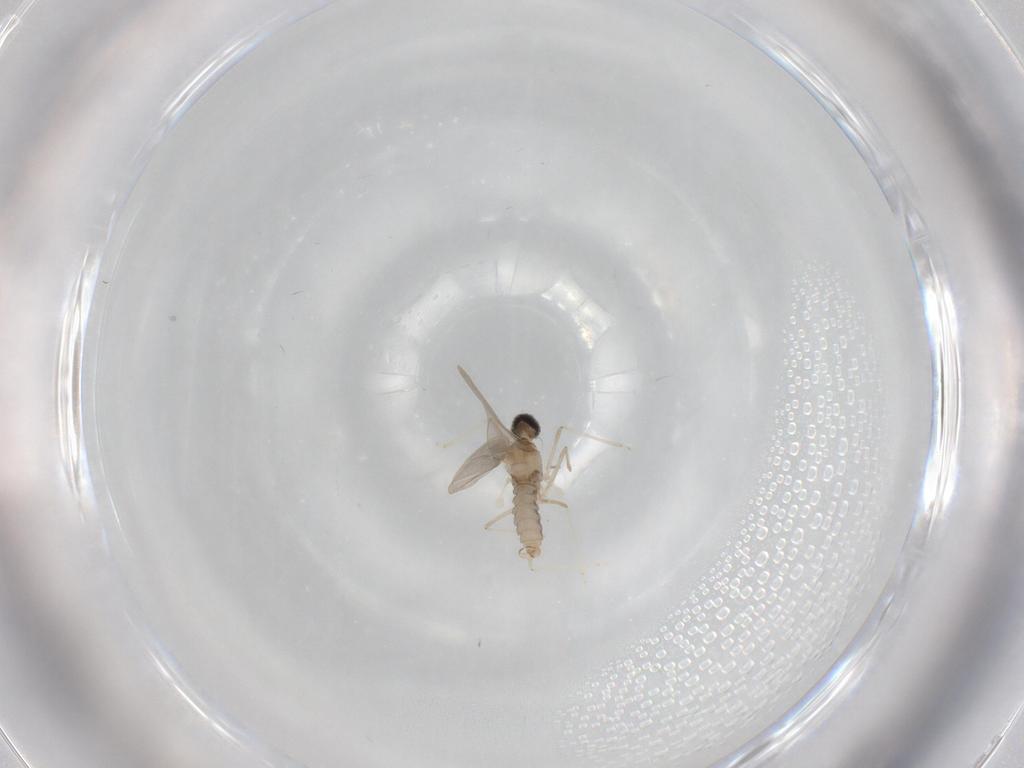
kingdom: Animalia
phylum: Arthropoda
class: Insecta
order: Diptera
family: Cecidomyiidae
